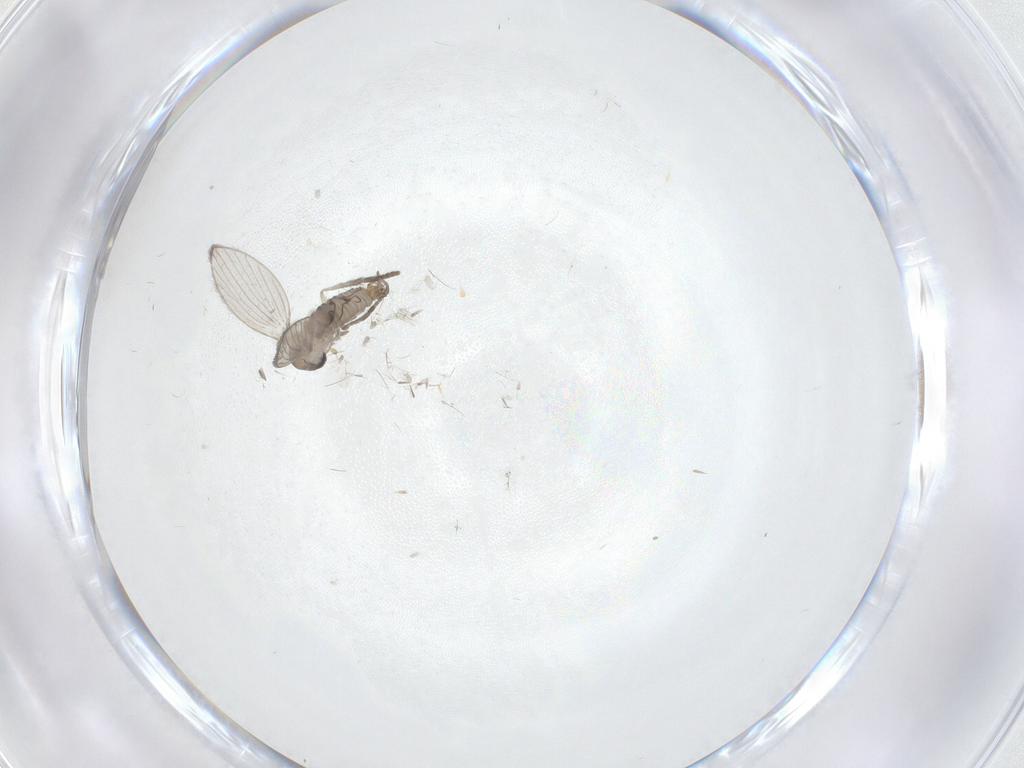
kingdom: Animalia
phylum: Arthropoda
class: Insecta
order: Diptera
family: Psychodidae
